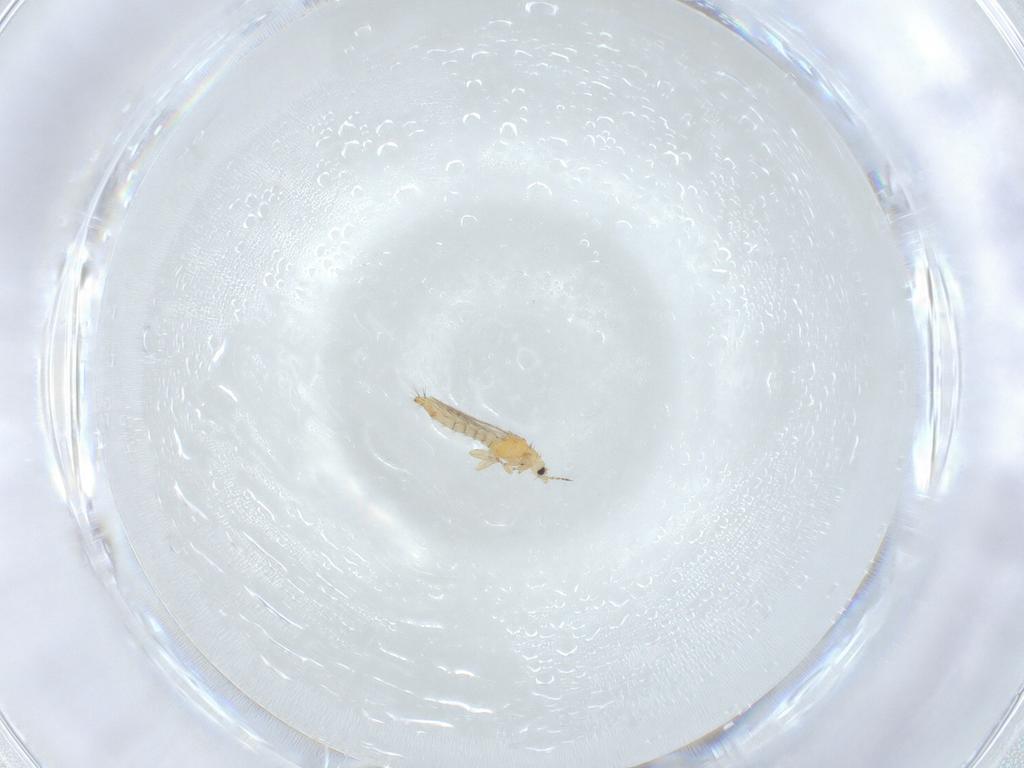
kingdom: Animalia
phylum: Arthropoda
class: Insecta
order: Thysanoptera
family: Thripidae
